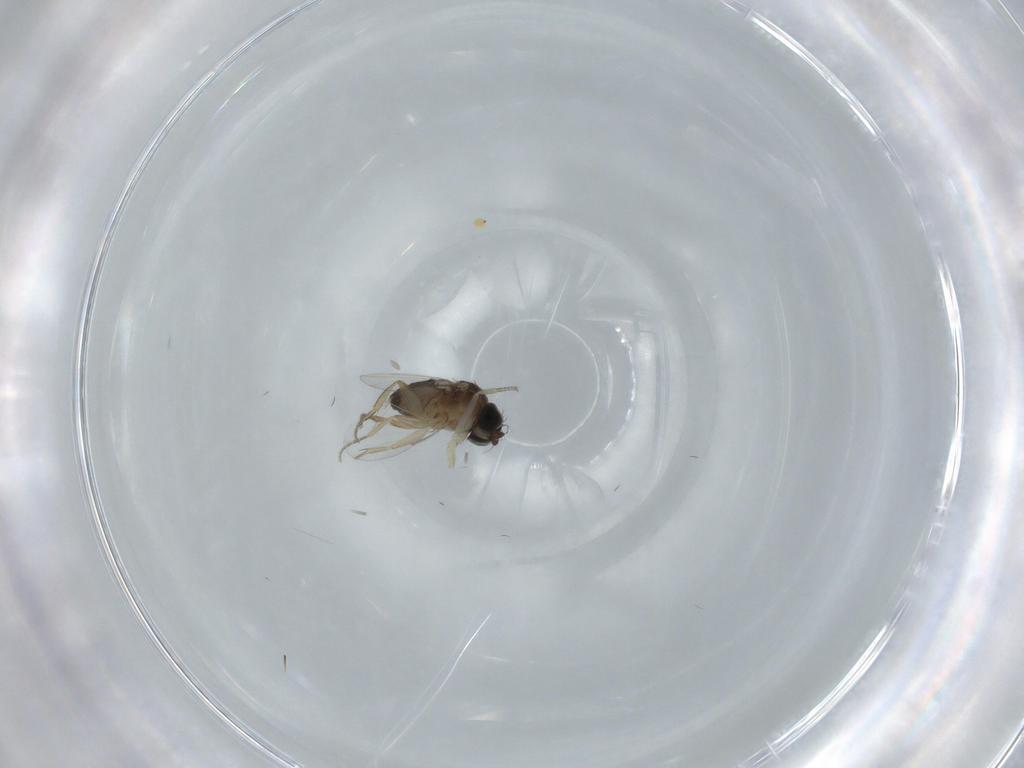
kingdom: Animalia
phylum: Arthropoda
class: Insecta
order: Diptera
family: Phoridae
